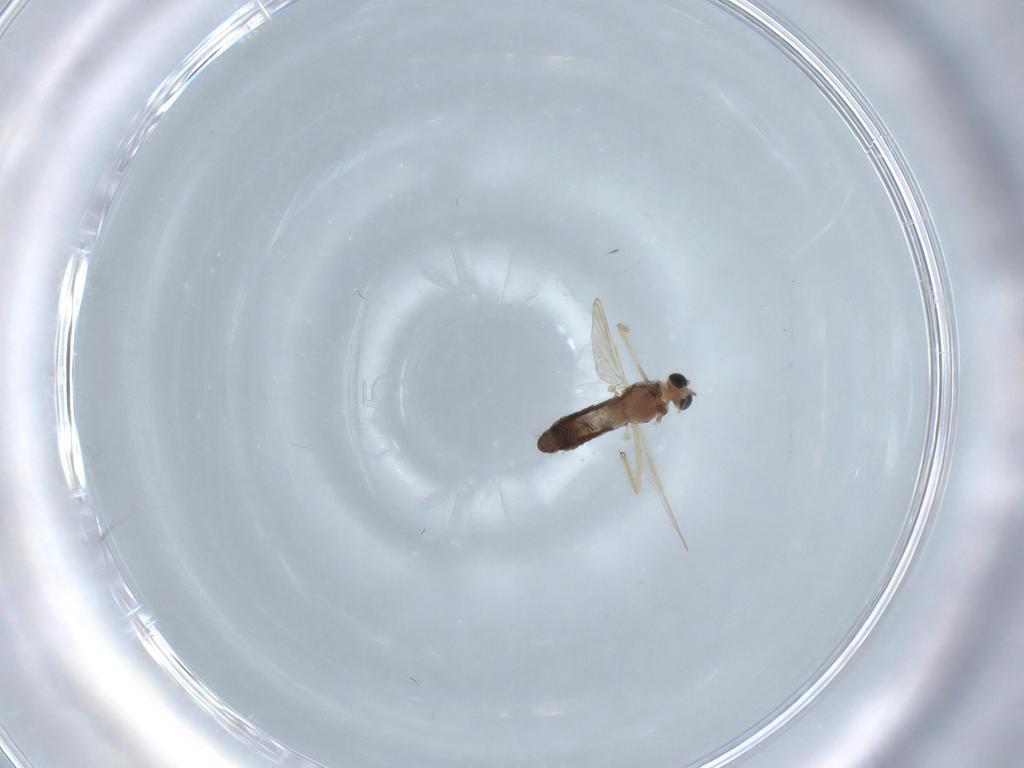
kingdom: Animalia
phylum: Arthropoda
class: Insecta
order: Diptera
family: Chironomidae
